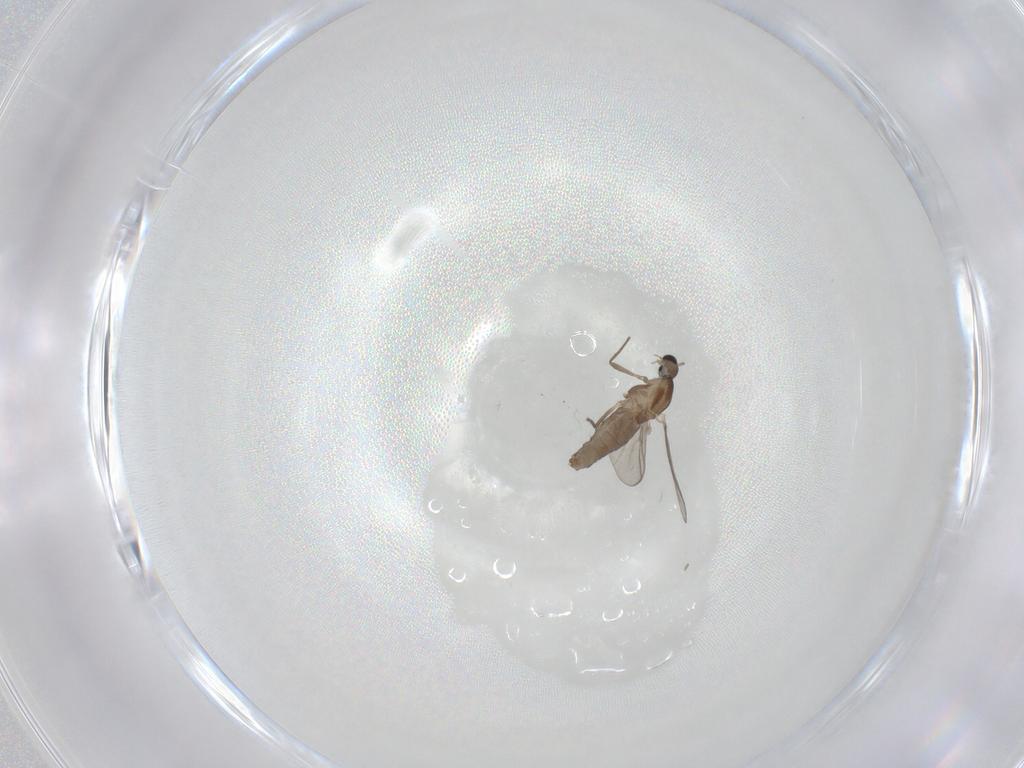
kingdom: Animalia
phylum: Arthropoda
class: Insecta
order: Diptera
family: Chironomidae
